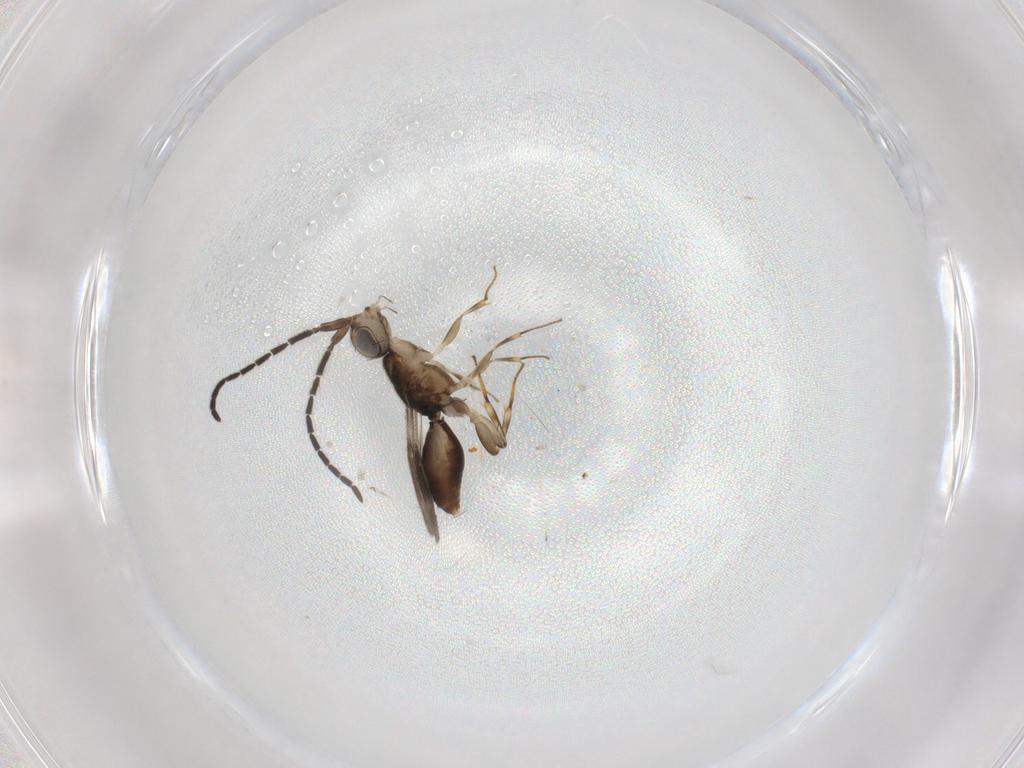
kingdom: Animalia
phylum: Arthropoda
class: Insecta
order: Hymenoptera
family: Megaspilidae
